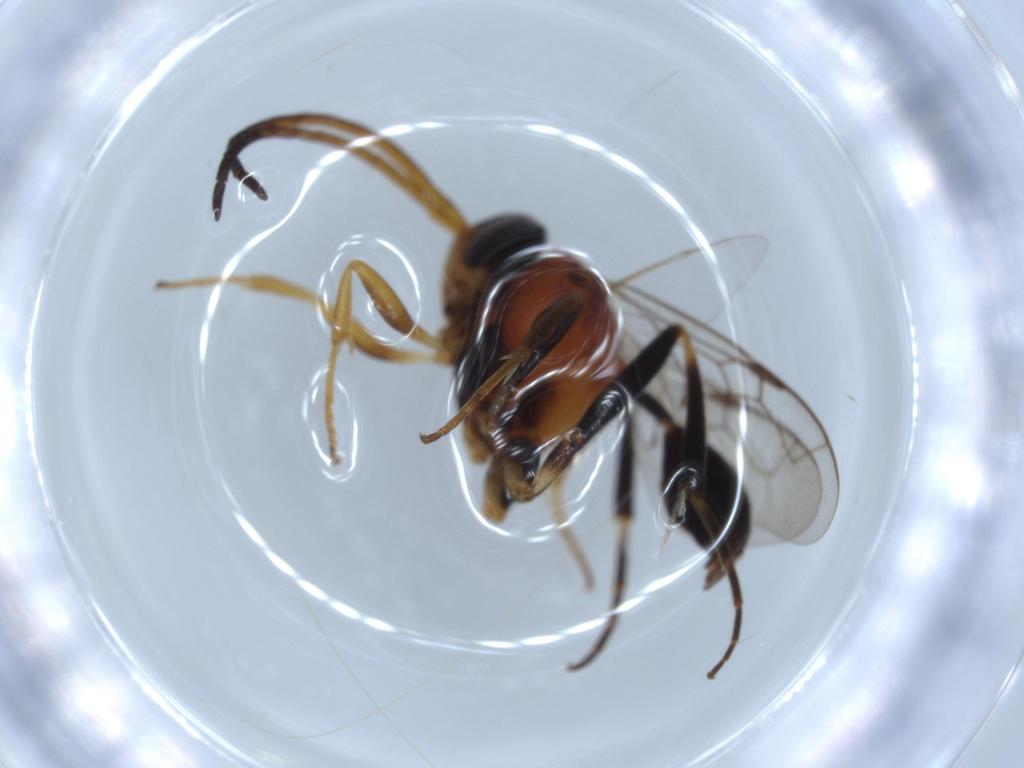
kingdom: Animalia
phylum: Arthropoda
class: Insecta
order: Hymenoptera
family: Evaniidae
